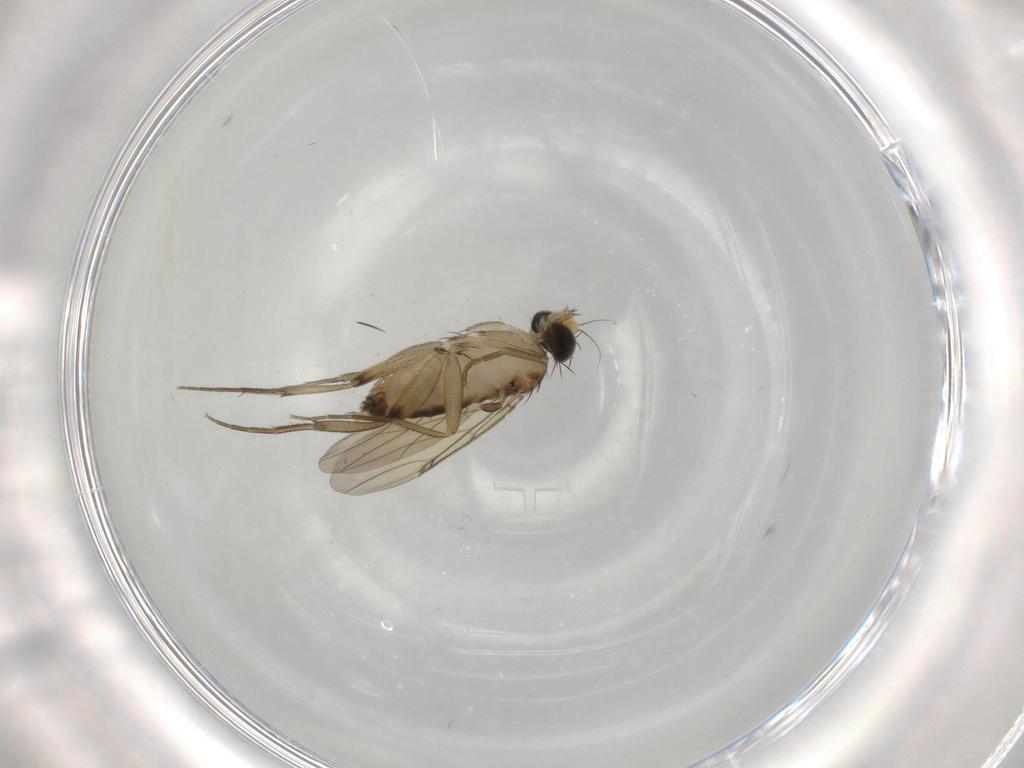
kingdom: Animalia
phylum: Arthropoda
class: Insecta
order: Diptera
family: Phoridae
